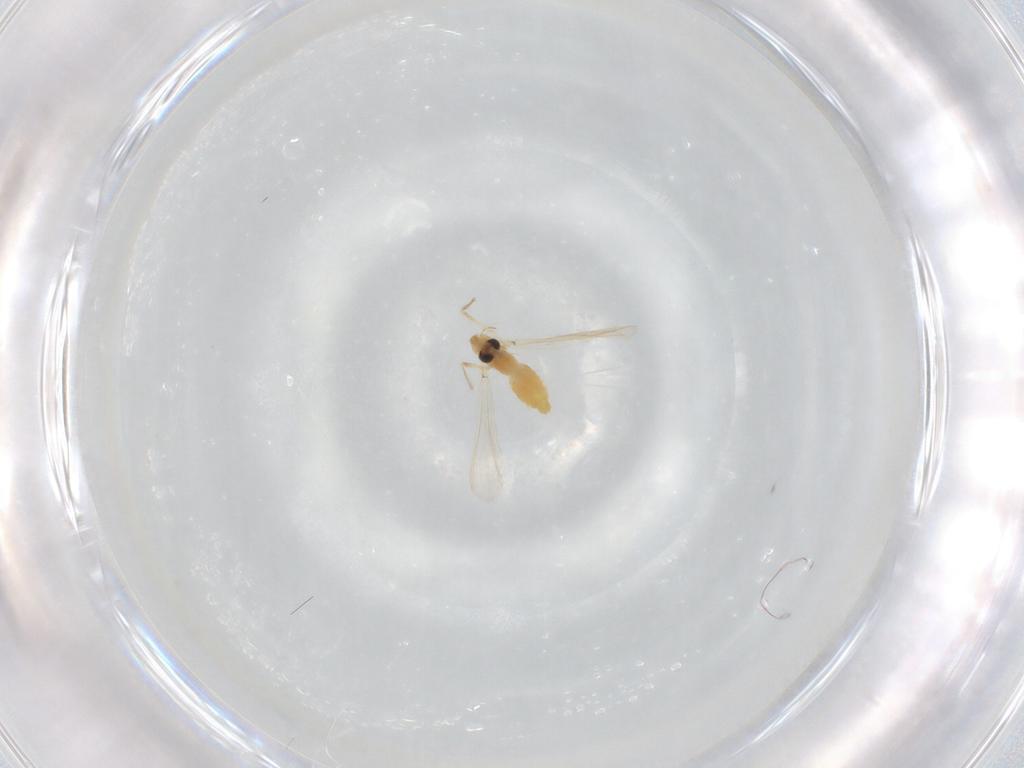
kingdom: Animalia
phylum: Arthropoda
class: Insecta
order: Diptera
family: Chironomidae
